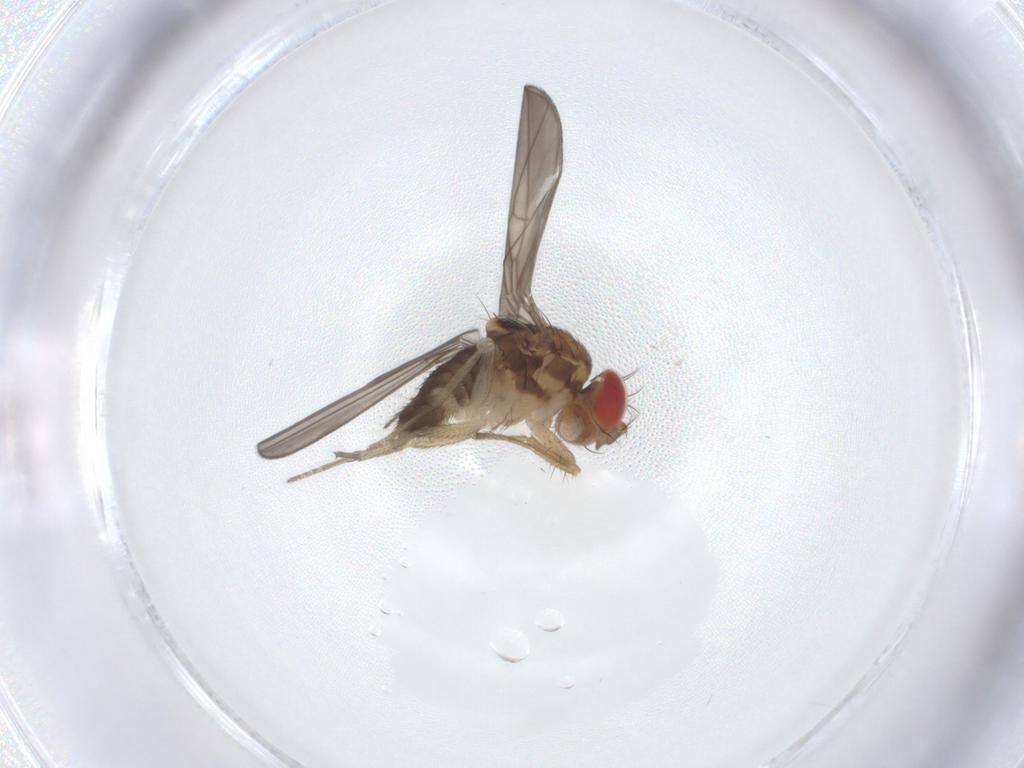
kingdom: Animalia
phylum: Arthropoda
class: Insecta
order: Diptera
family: Drosophilidae
